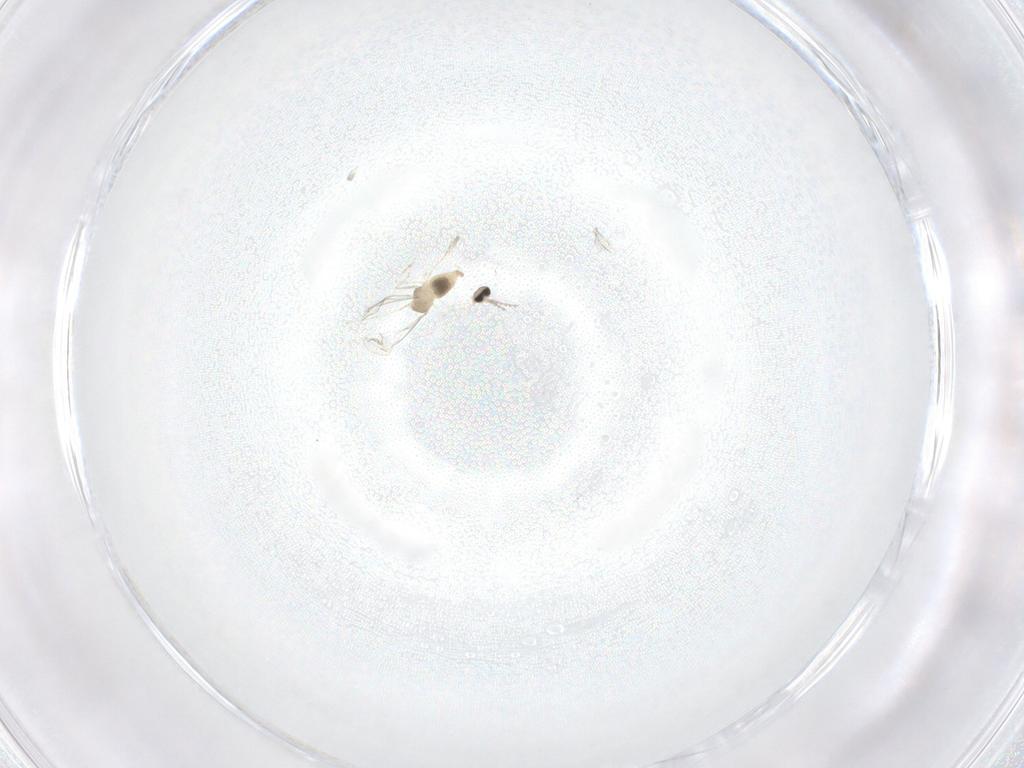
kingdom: Animalia
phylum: Arthropoda
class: Insecta
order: Diptera
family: Cecidomyiidae
